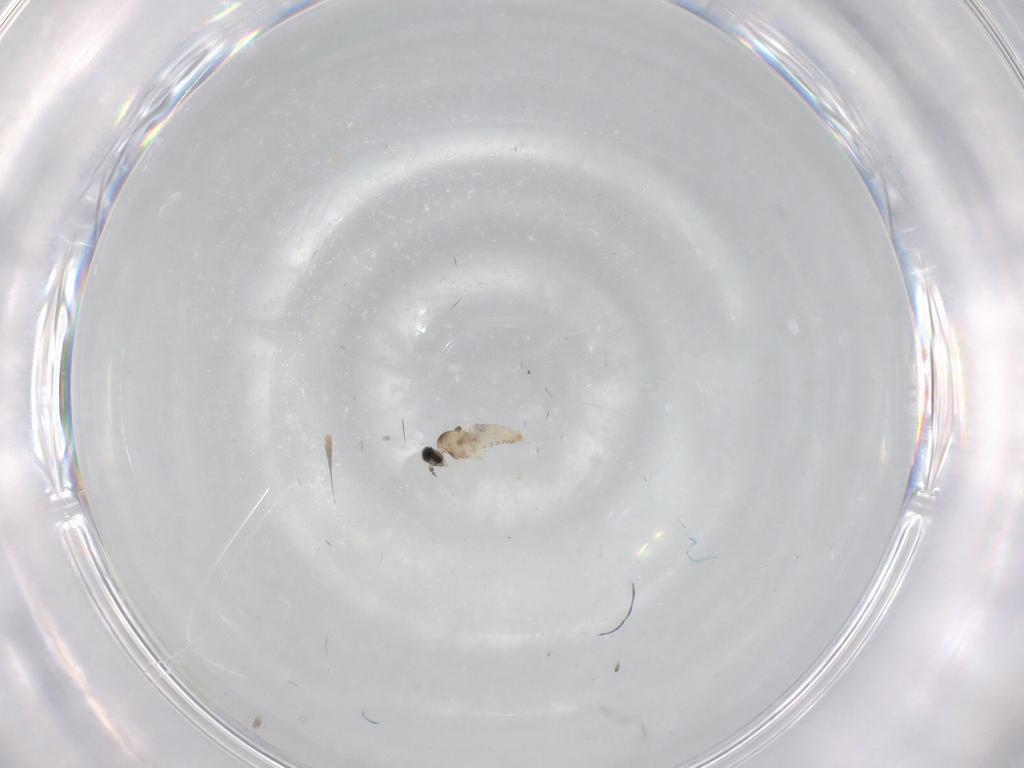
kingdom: Animalia
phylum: Arthropoda
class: Insecta
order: Diptera
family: Cecidomyiidae
